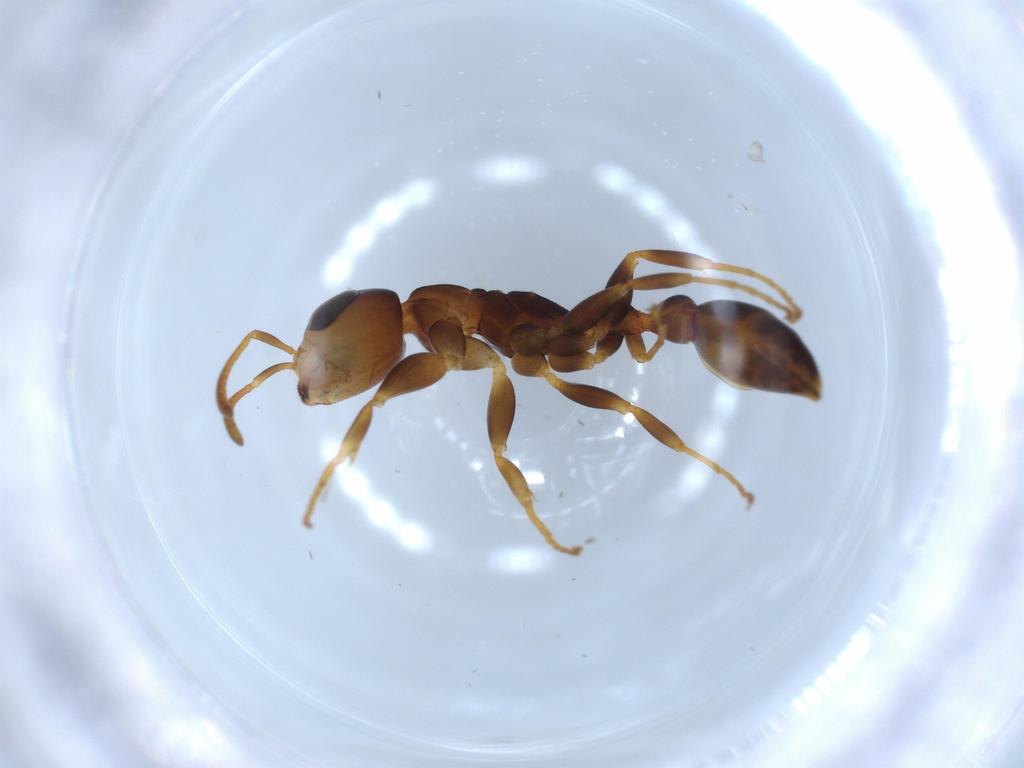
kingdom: Animalia
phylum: Arthropoda
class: Insecta
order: Hymenoptera
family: Formicidae
